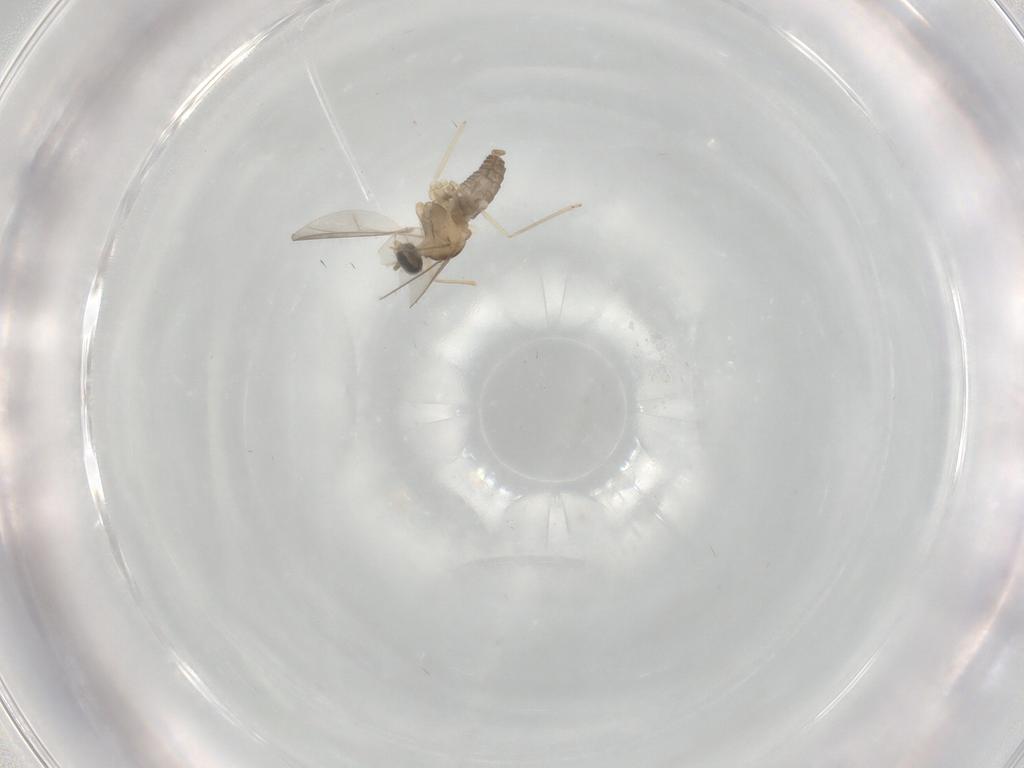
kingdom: Animalia
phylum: Arthropoda
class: Insecta
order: Diptera
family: Cecidomyiidae
